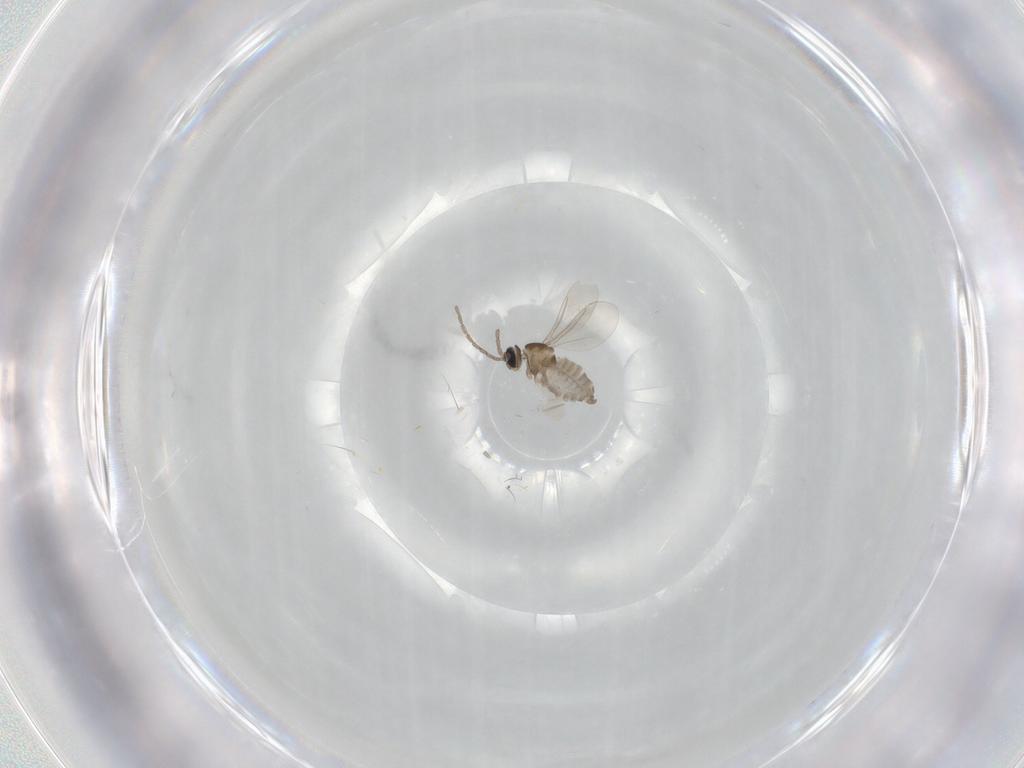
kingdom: Animalia
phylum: Arthropoda
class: Insecta
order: Diptera
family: Cecidomyiidae
